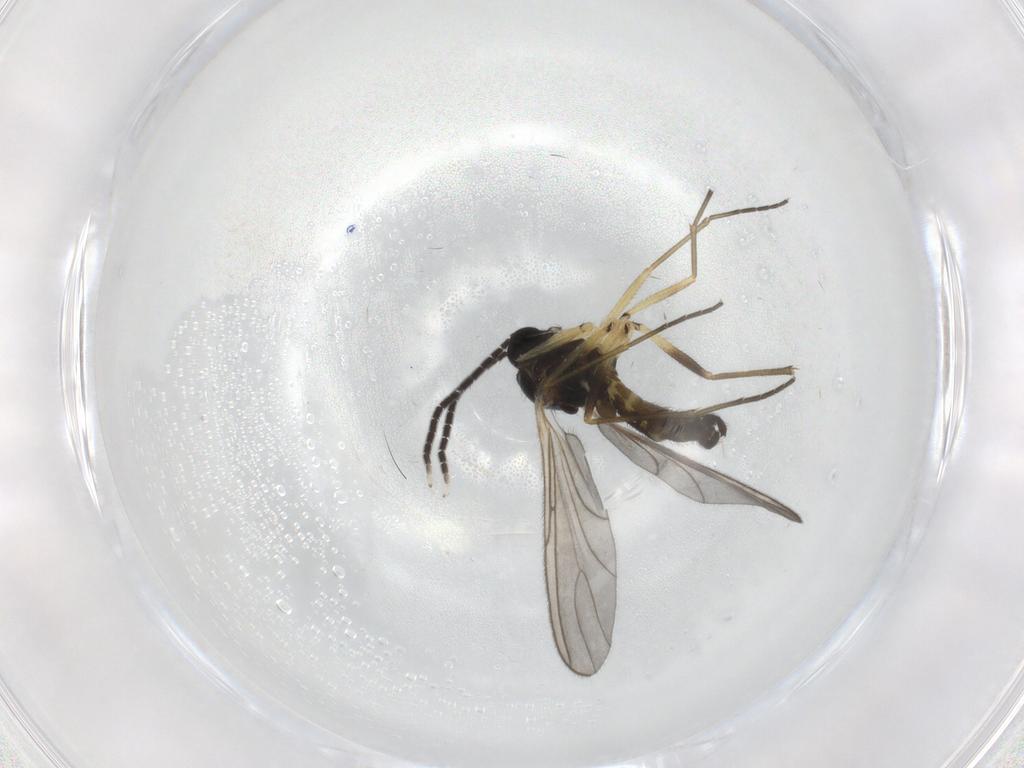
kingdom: Animalia
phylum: Arthropoda
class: Insecta
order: Diptera
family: Sciaridae
